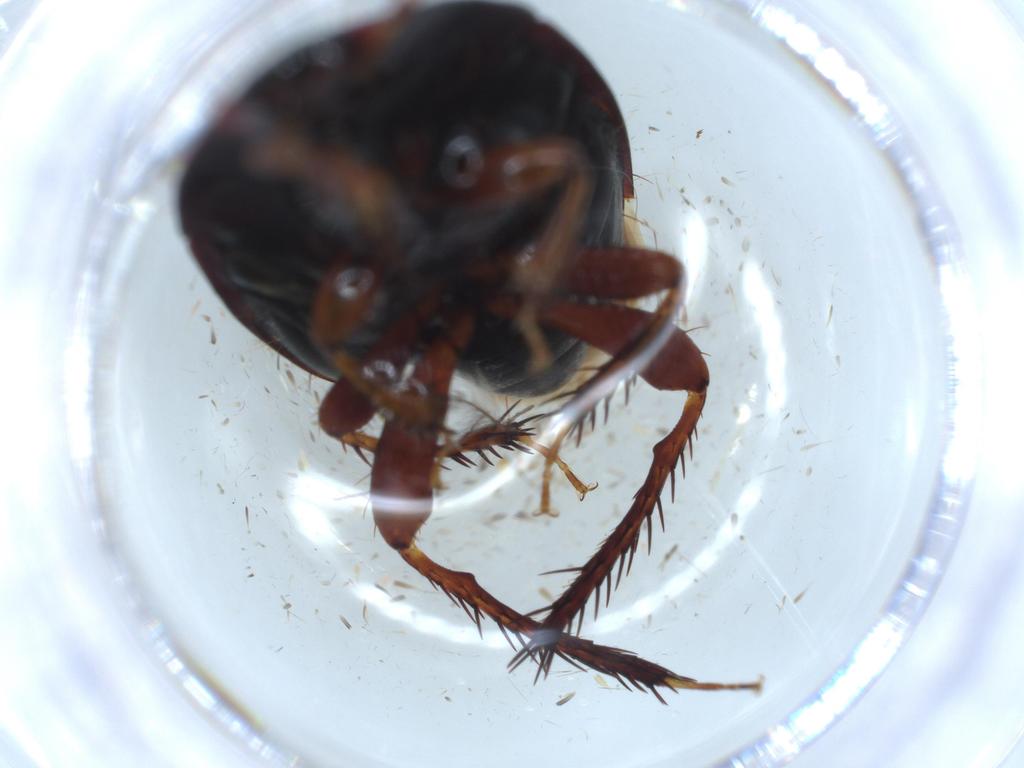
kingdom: Animalia
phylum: Arthropoda
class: Insecta
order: Hemiptera
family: Cydnidae
